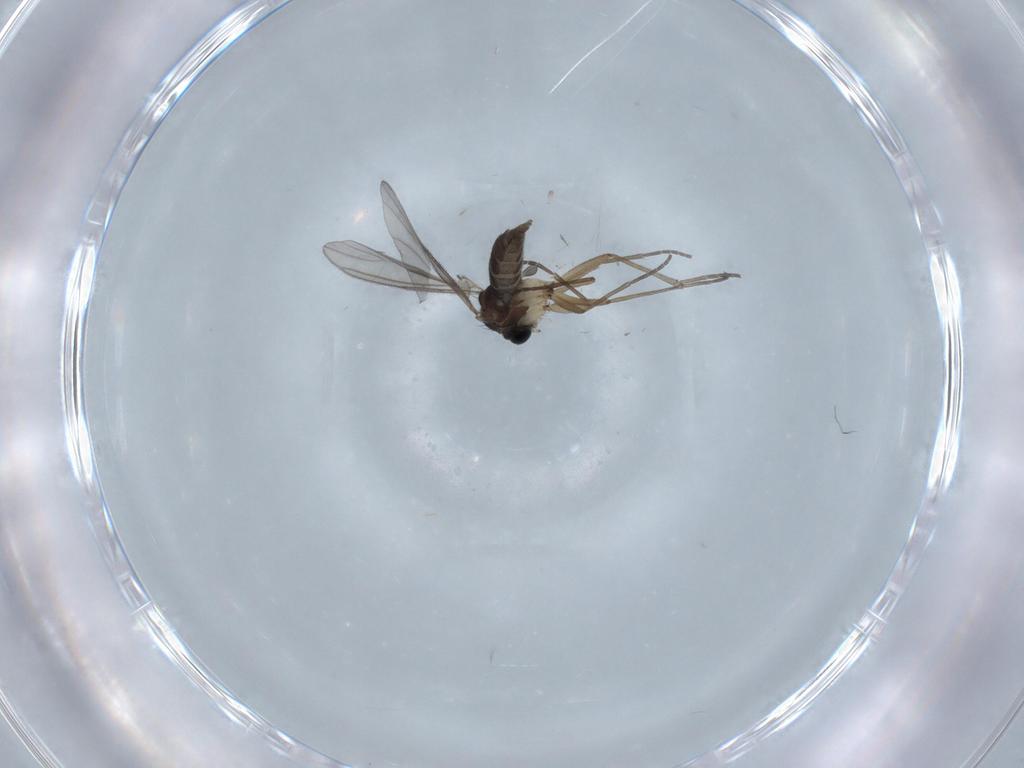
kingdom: Animalia
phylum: Arthropoda
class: Insecta
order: Diptera
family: Sciaridae
